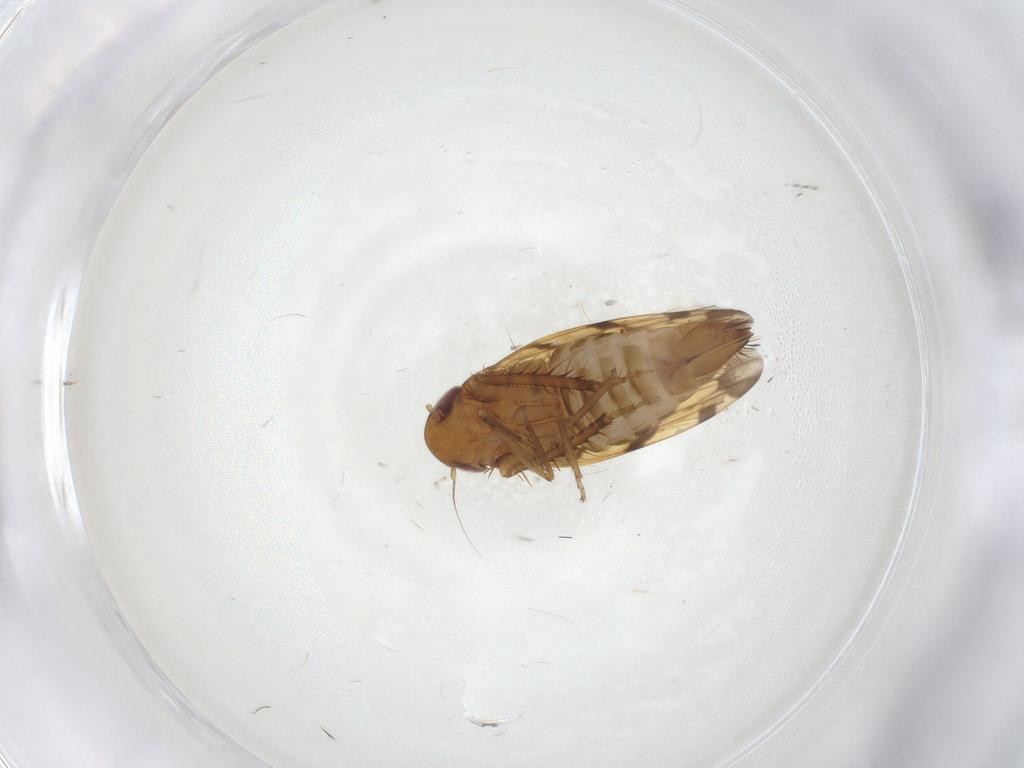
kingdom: Animalia
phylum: Arthropoda
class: Insecta
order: Hemiptera
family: Cicadellidae
